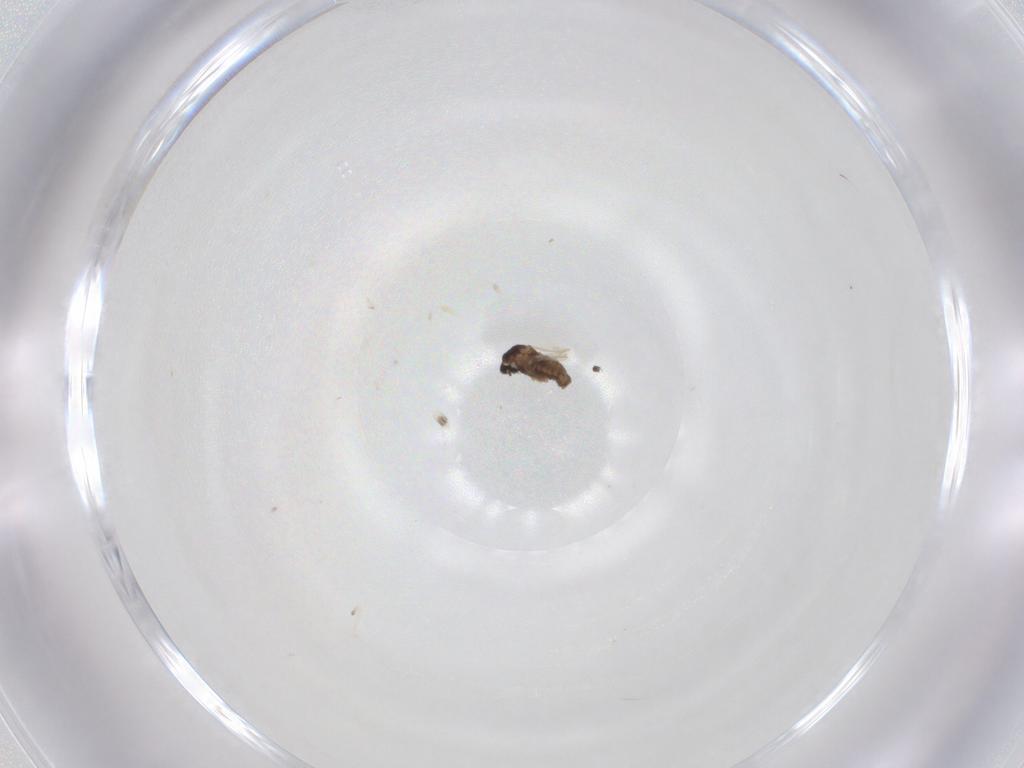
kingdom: Animalia
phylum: Arthropoda
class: Insecta
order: Diptera
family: Cecidomyiidae
